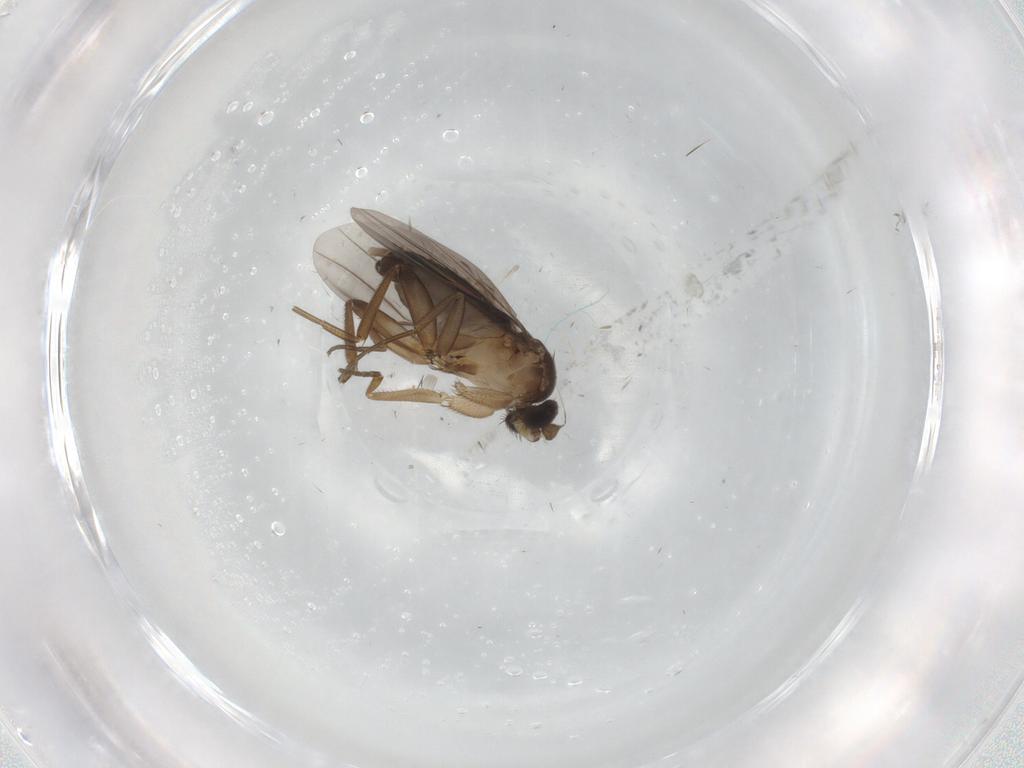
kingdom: Animalia
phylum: Arthropoda
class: Insecta
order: Diptera
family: Phoridae
